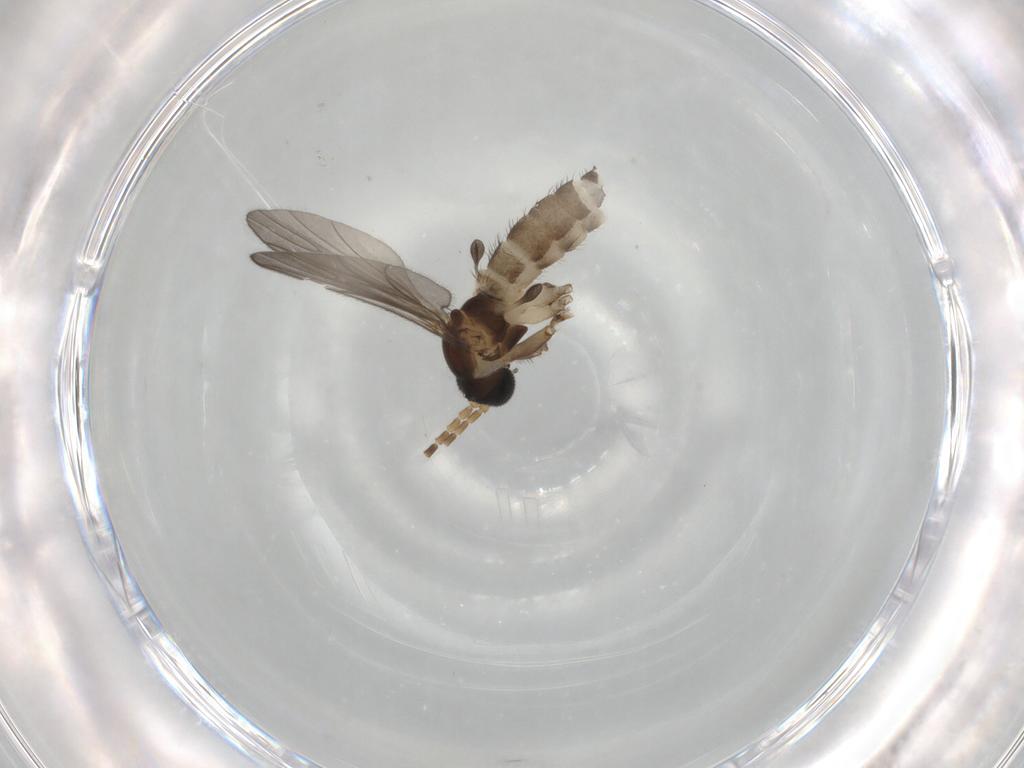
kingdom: Animalia
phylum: Arthropoda
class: Insecta
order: Diptera
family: Sciaridae
